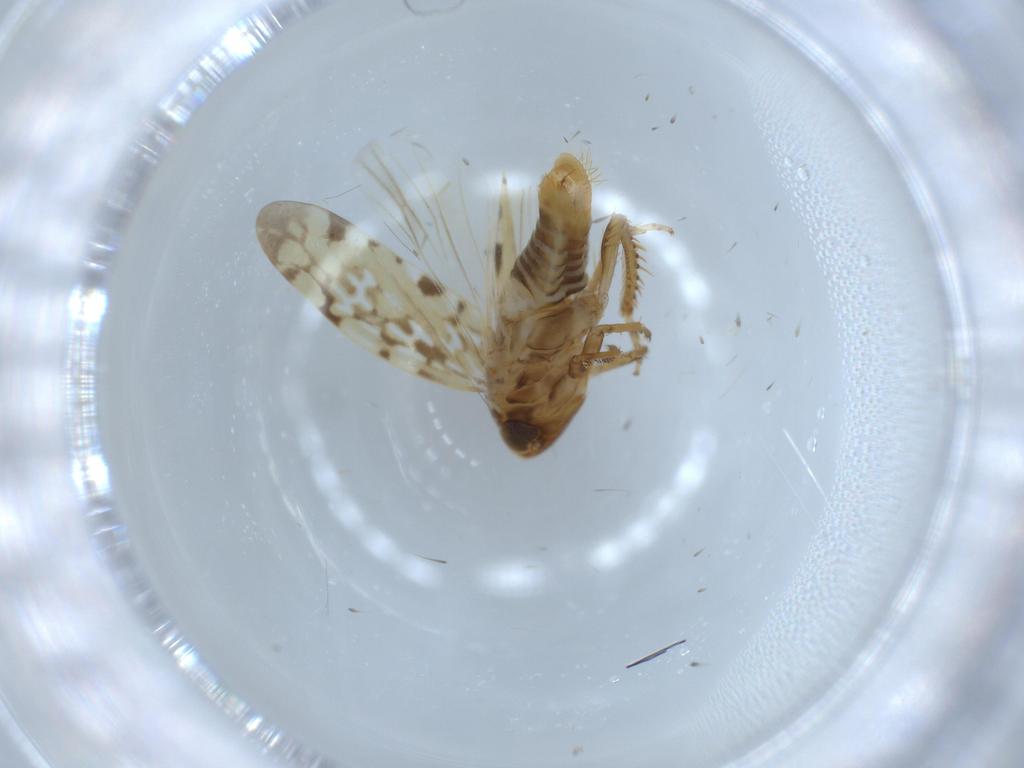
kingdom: Animalia
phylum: Arthropoda
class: Insecta
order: Hemiptera
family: Cicadellidae
